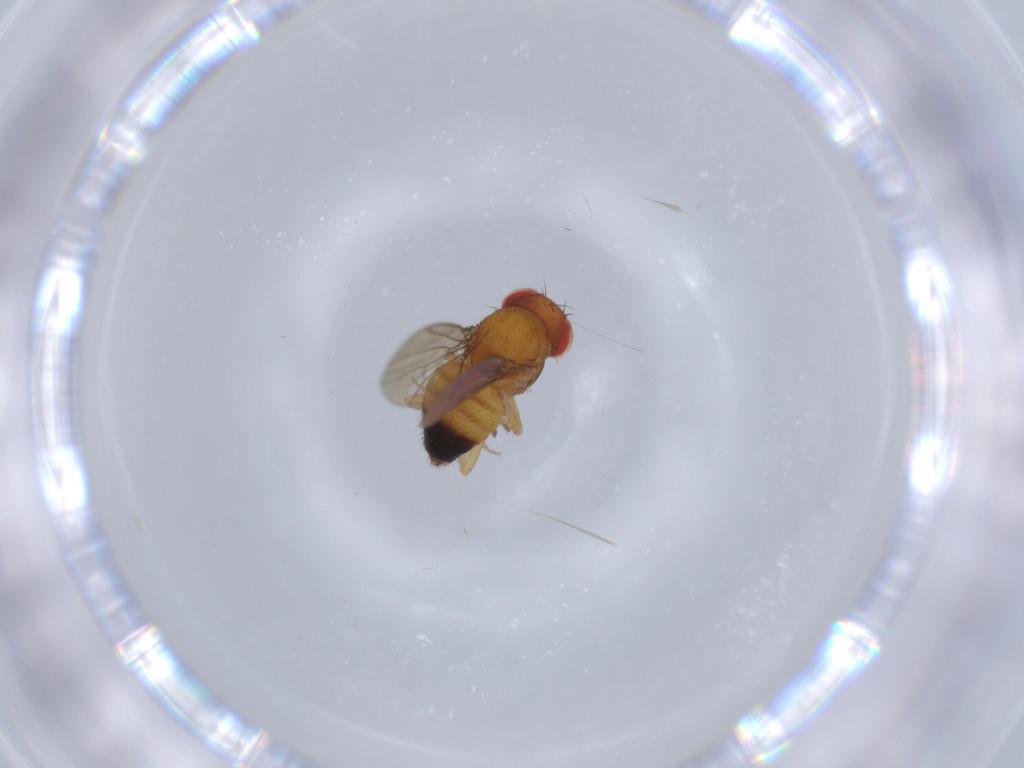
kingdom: Animalia
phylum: Arthropoda
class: Insecta
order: Diptera
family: Drosophilidae
